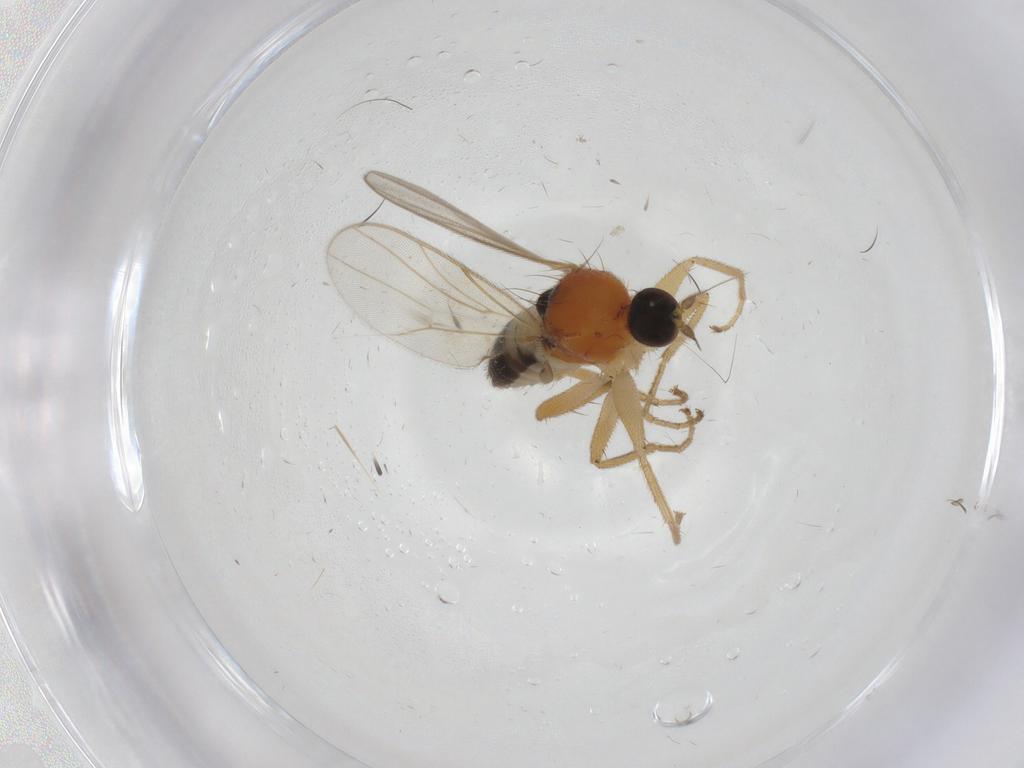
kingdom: Animalia
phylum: Arthropoda
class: Insecta
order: Diptera
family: Hybotidae
